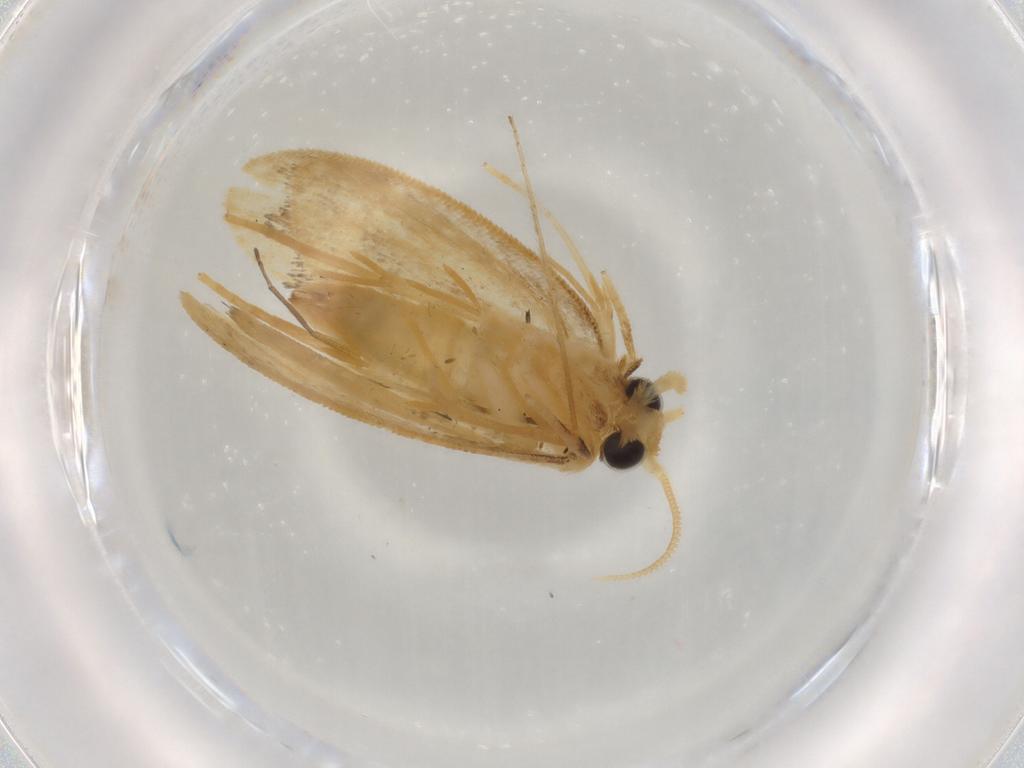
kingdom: Animalia
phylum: Arthropoda
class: Insecta
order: Lepidoptera
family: Psychidae
